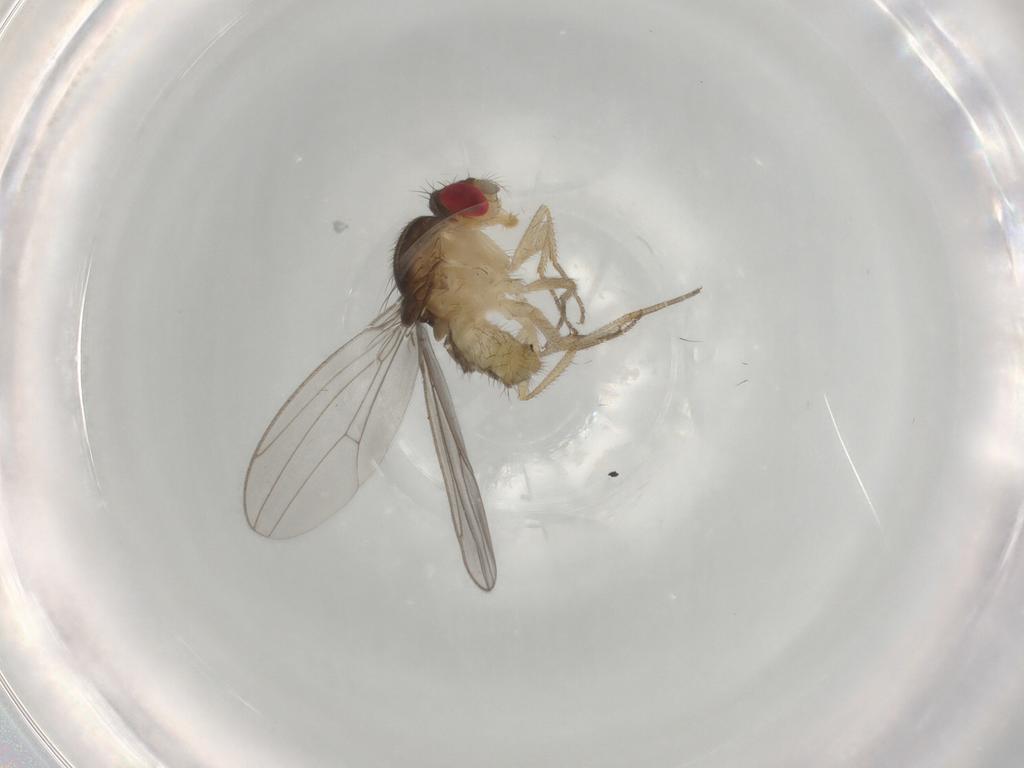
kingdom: Animalia
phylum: Arthropoda
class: Insecta
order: Diptera
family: Drosophilidae
